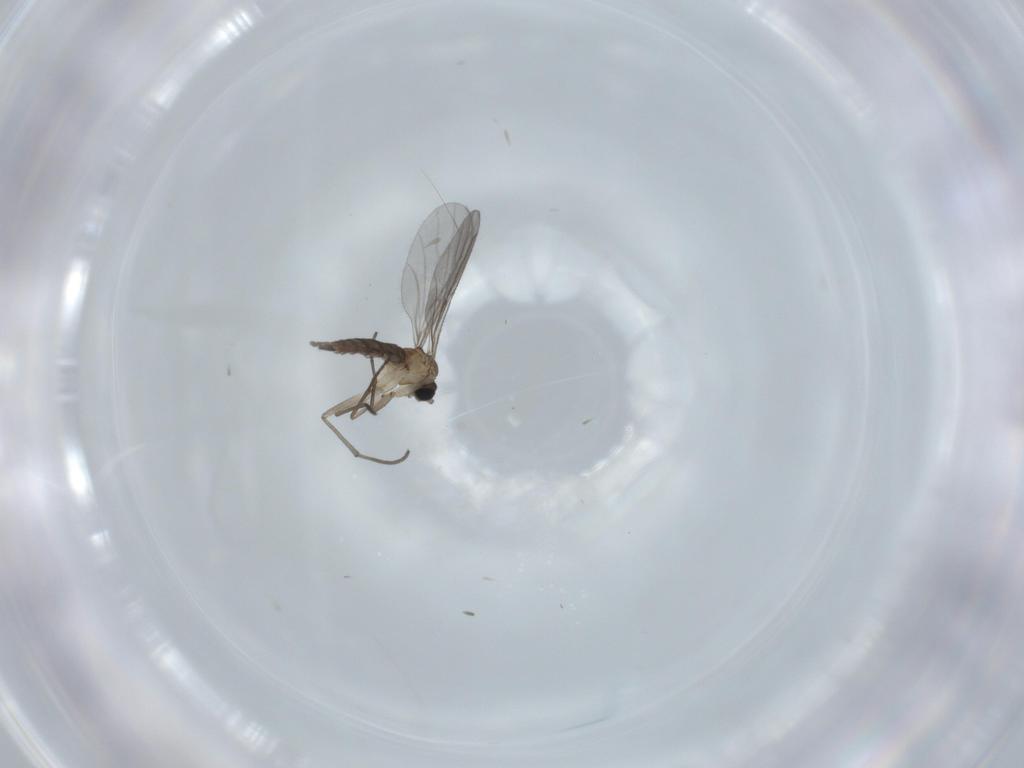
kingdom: Animalia
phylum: Arthropoda
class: Insecta
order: Diptera
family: Sciaridae
